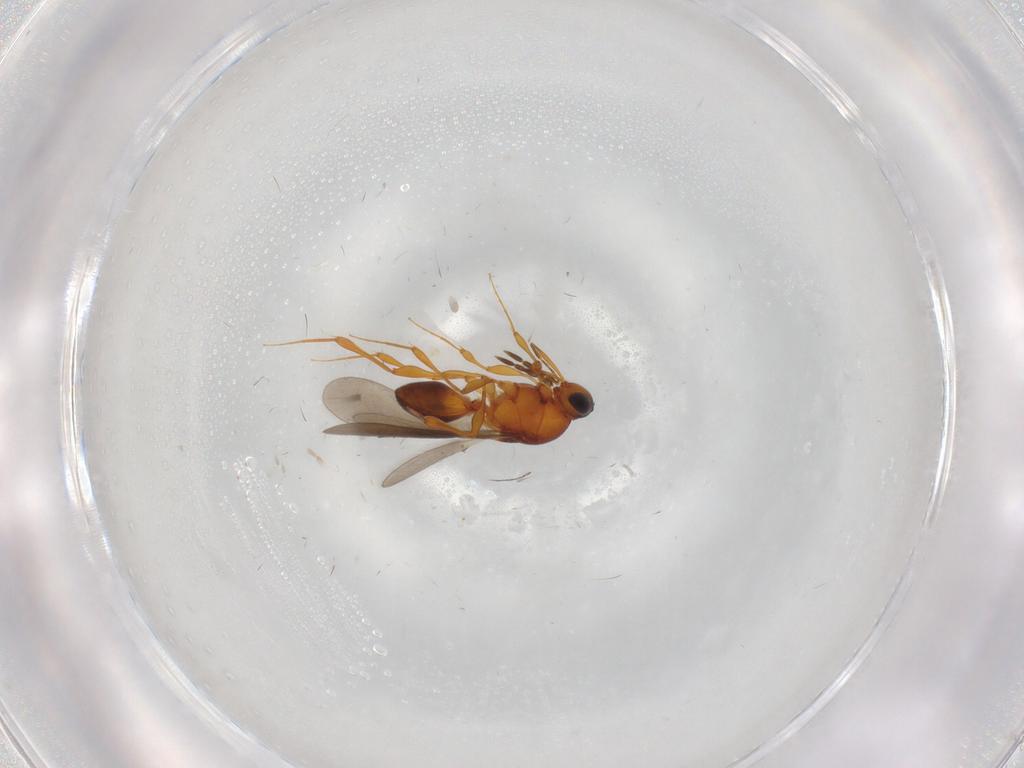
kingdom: Animalia
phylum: Arthropoda
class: Insecta
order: Hymenoptera
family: Platygastridae
